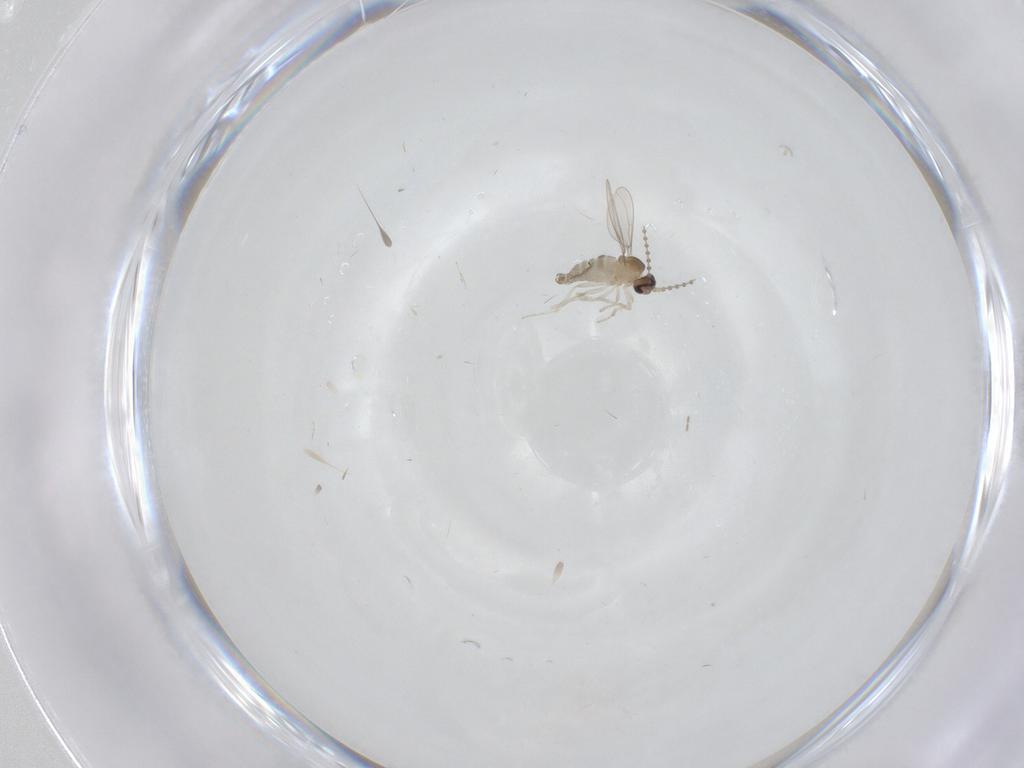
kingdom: Animalia
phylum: Arthropoda
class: Insecta
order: Diptera
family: Cecidomyiidae
